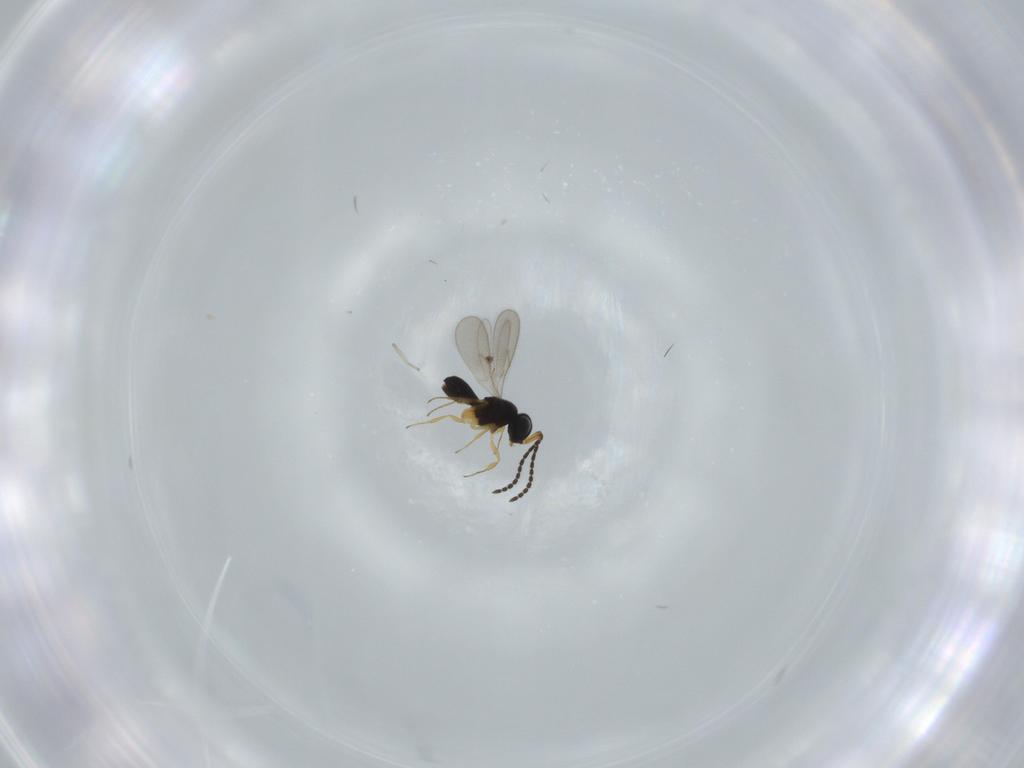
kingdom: Animalia
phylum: Arthropoda
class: Insecta
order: Hymenoptera
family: Scelionidae
